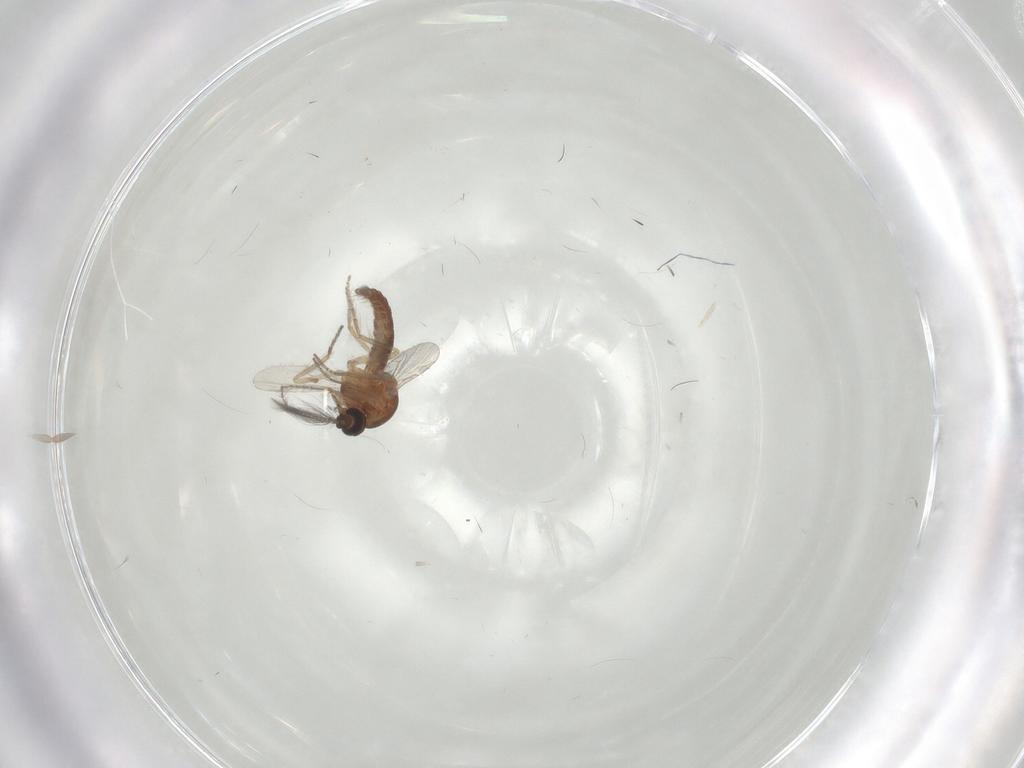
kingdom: Animalia
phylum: Arthropoda
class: Insecta
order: Diptera
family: Ceratopogonidae
